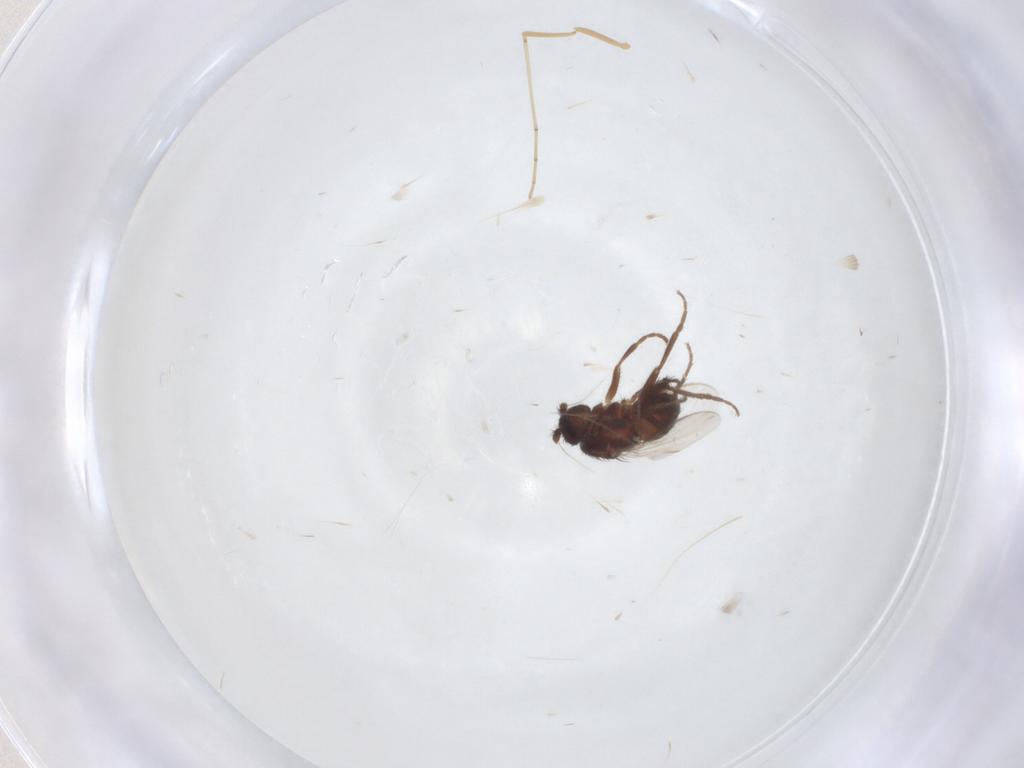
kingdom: Animalia
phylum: Arthropoda
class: Insecta
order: Diptera
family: Sphaeroceridae
